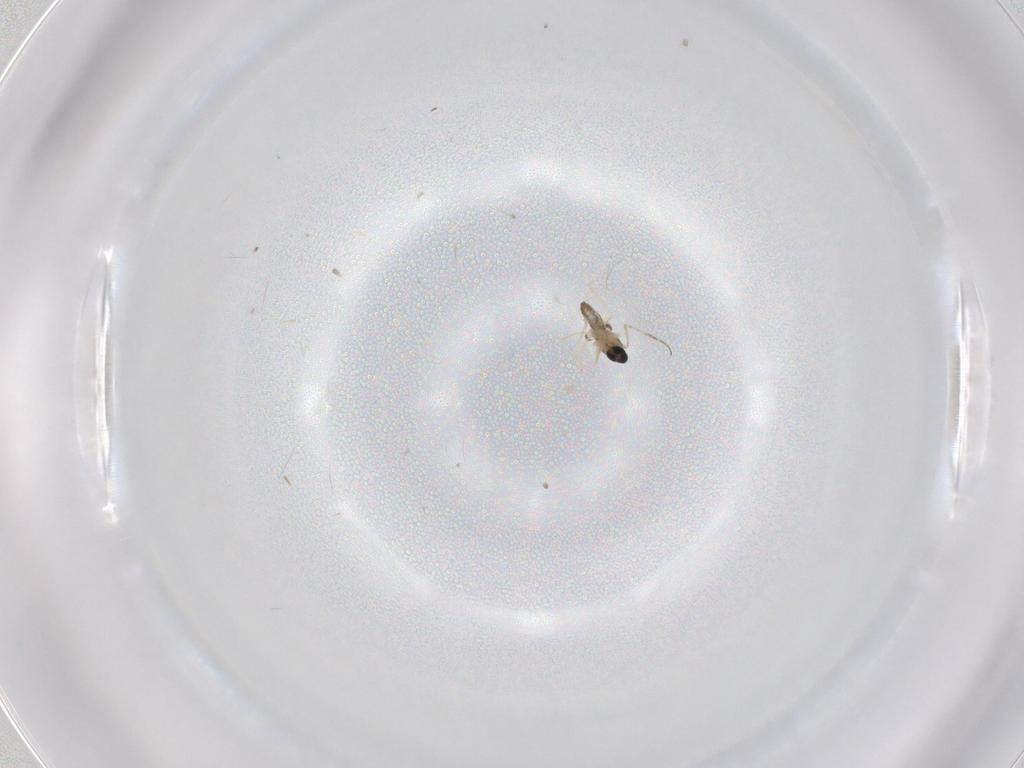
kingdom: Animalia
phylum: Arthropoda
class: Insecta
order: Diptera
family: Cecidomyiidae
